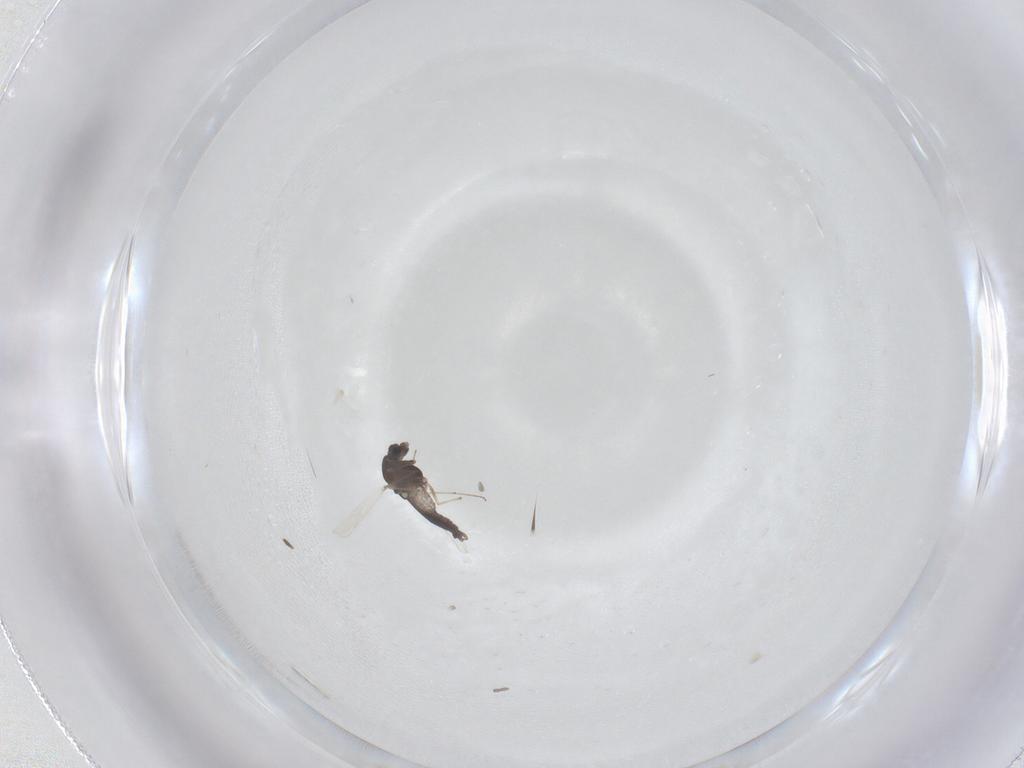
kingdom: Animalia
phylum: Arthropoda
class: Insecta
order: Diptera
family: Chironomidae
